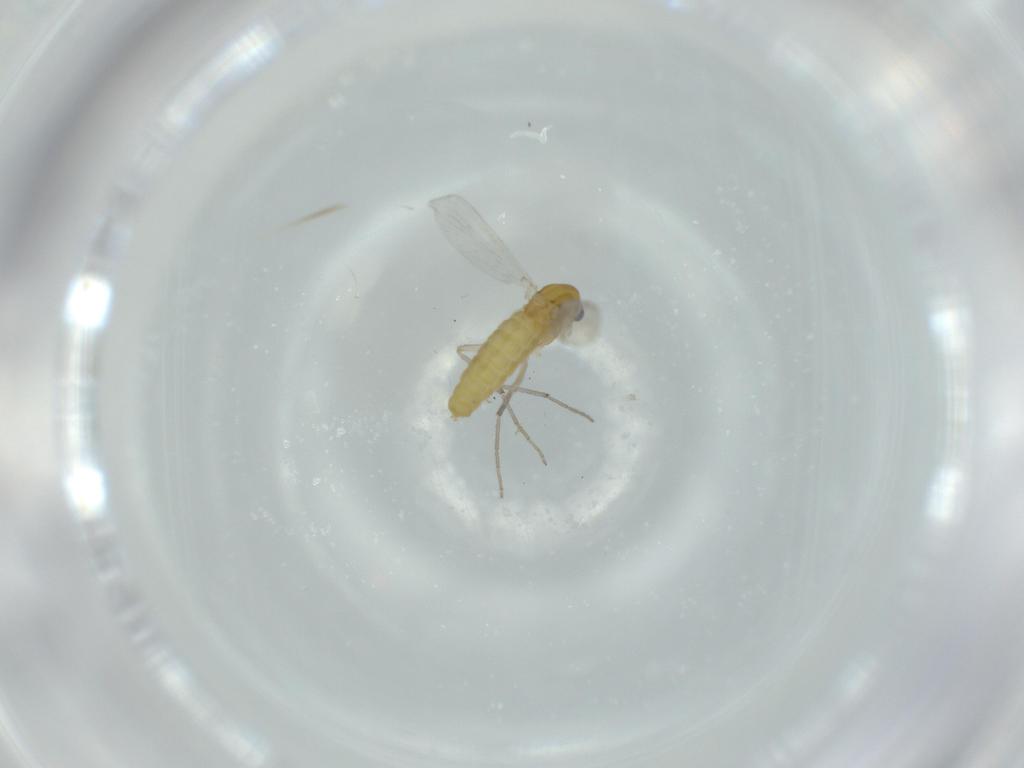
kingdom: Animalia
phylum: Arthropoda
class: Insecta
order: Diptera
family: Chironomidae
